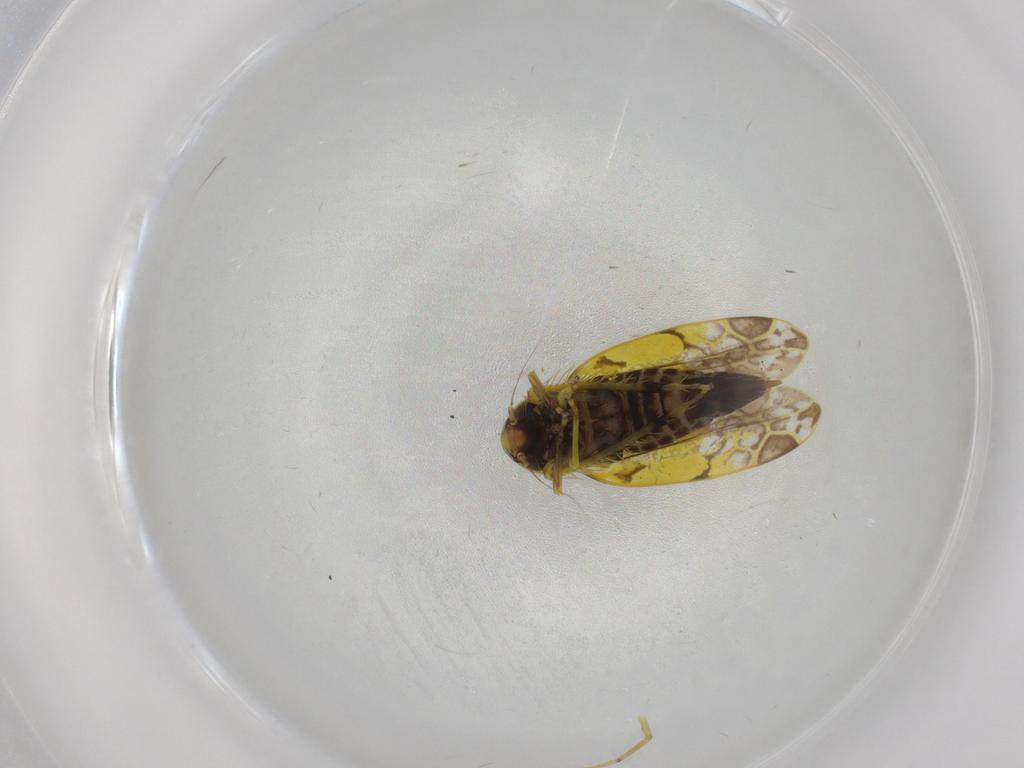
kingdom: Animalia
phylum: Arthropoda
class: Insecta
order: Hemiptera
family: Cicadellidae
